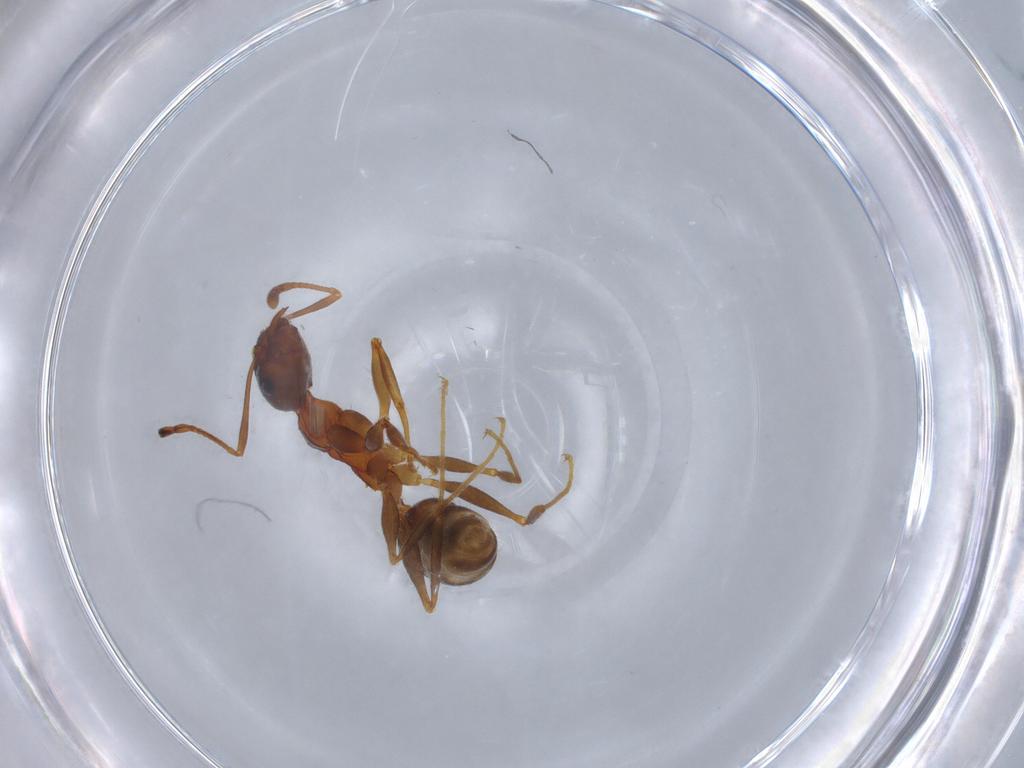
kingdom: Animalia
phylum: Arthropoda
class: Insecta
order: Hymenoptera
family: Formicidae
